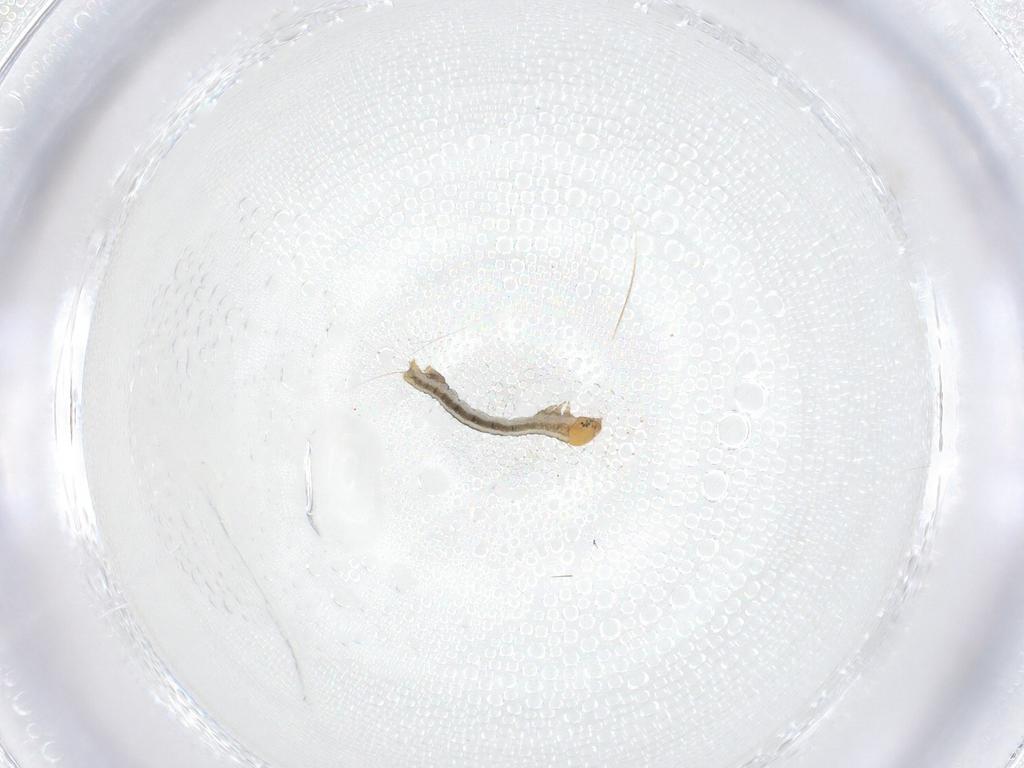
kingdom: Animalia
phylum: Arthropoda
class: Insecta
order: Lepidoptera
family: Geometridae
